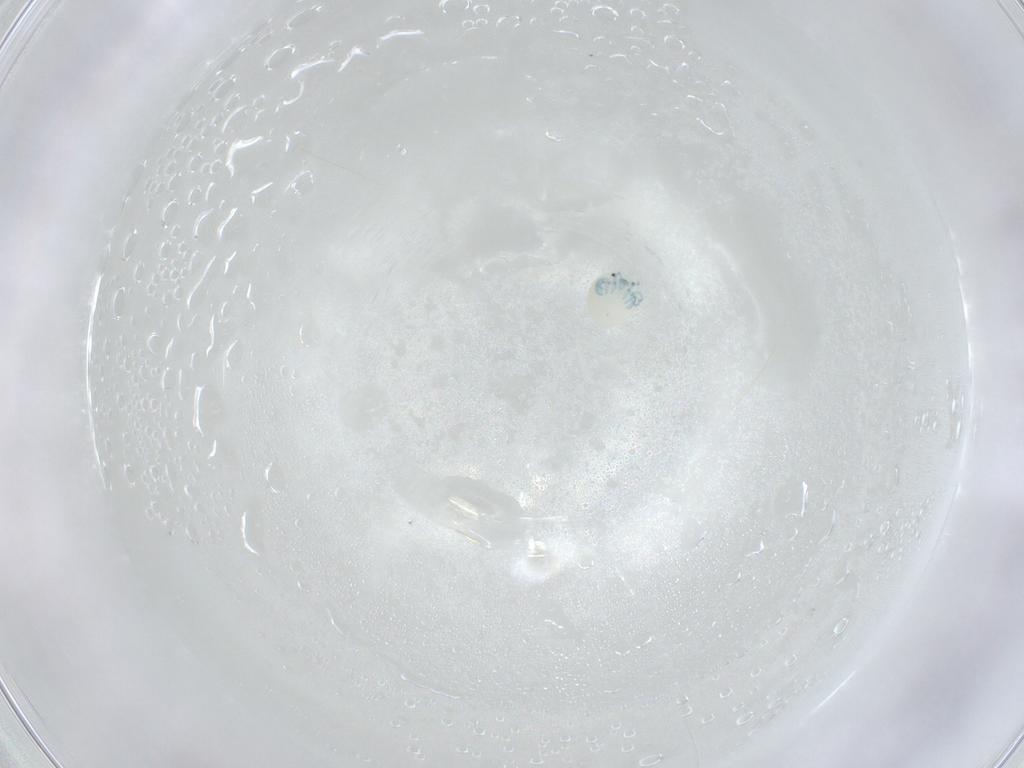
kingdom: Animalia
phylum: Arthropoda
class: Arachnida
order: Trombidiformes
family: Arrenuridae
